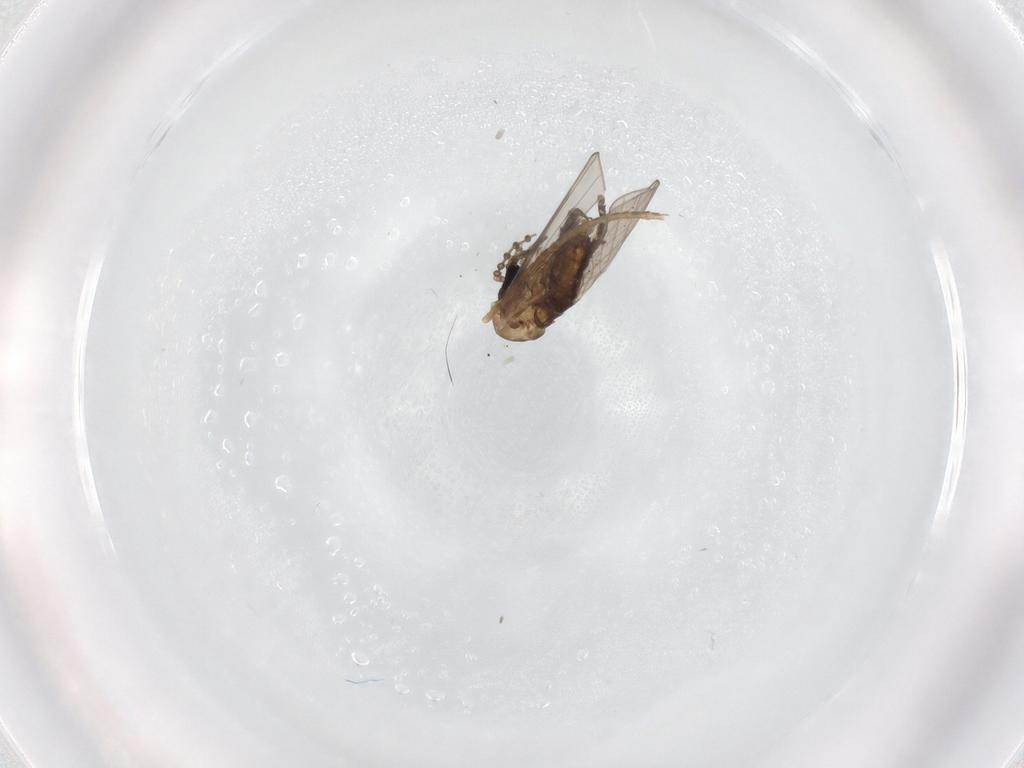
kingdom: Animalia
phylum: Arthropoda
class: Insecta
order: Diptera
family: Psychodidae
